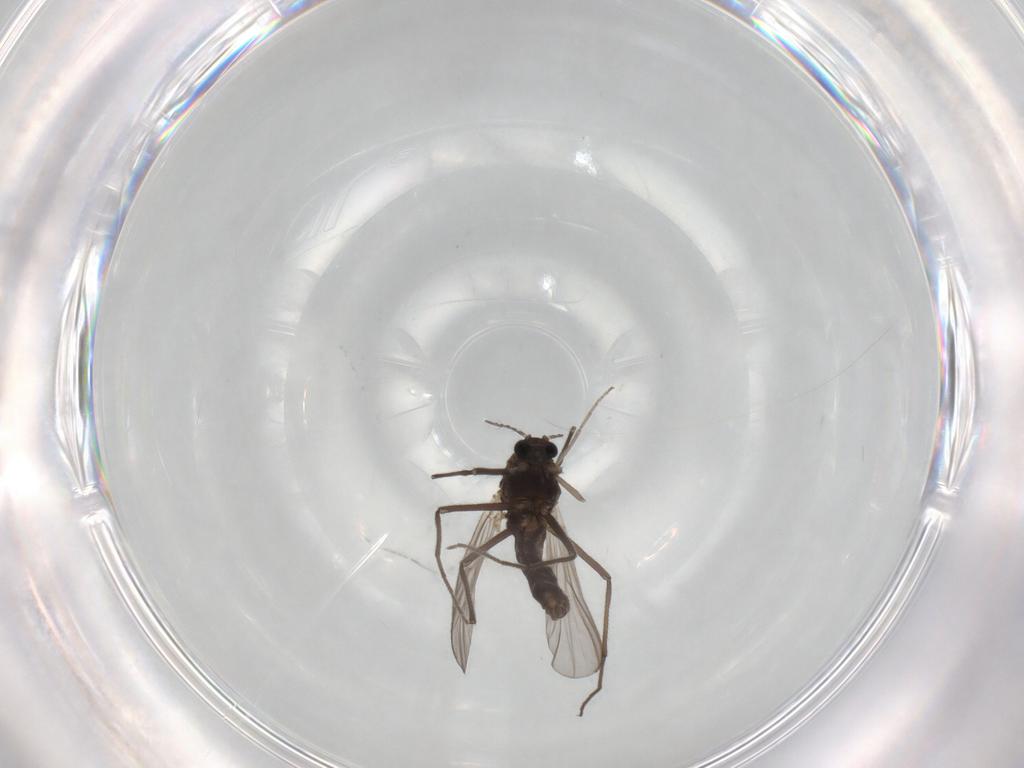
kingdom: Animalia
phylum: Arthropoda
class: Insecta
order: Diptera
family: Chironomidae
